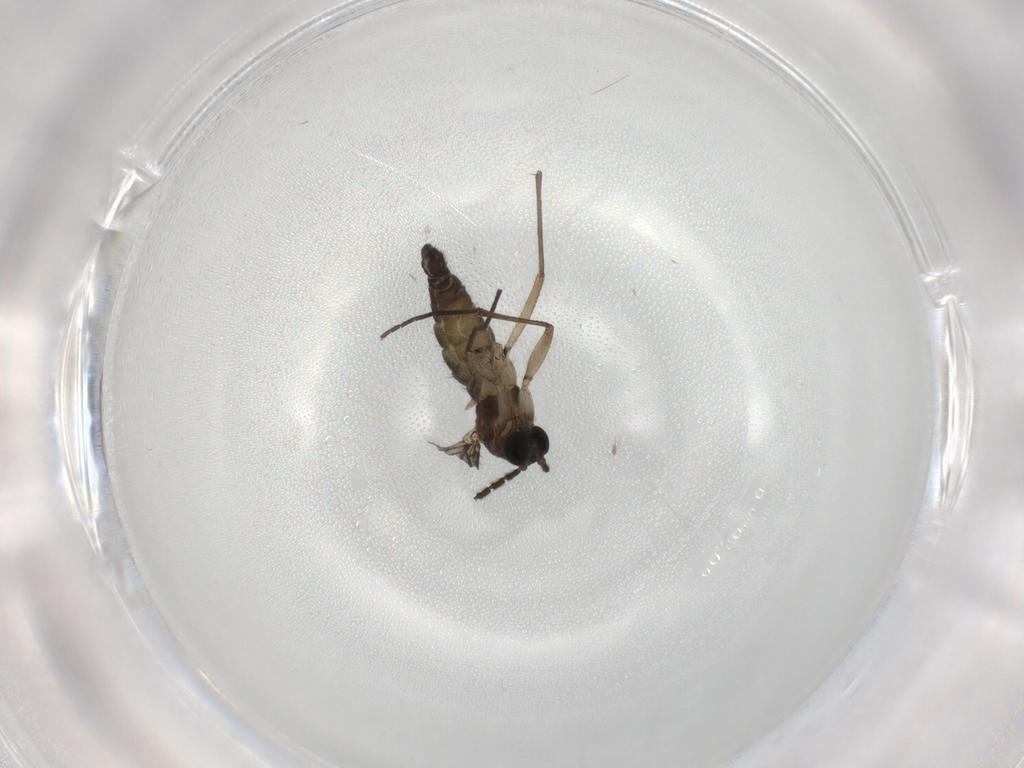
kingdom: Animalia
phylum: Arthropoda
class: Insecta
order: Diptera
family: Sciaridae
